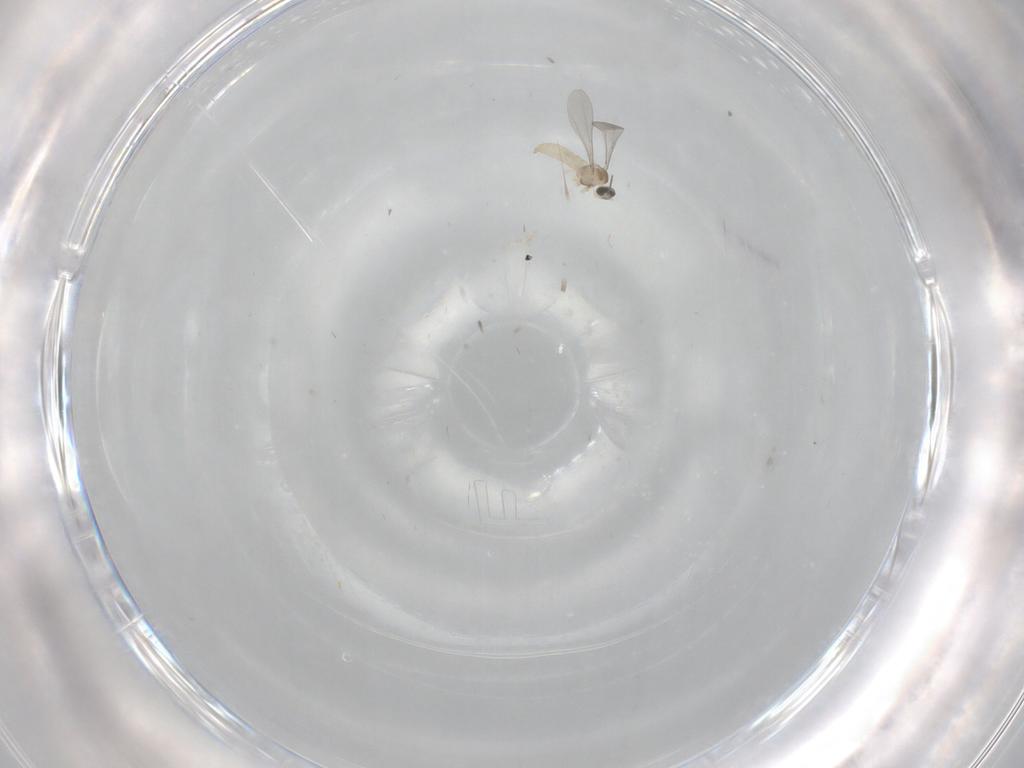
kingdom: Animalia
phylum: Arthropoda
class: Insecta
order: Diptera
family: Cecidomyiidae
